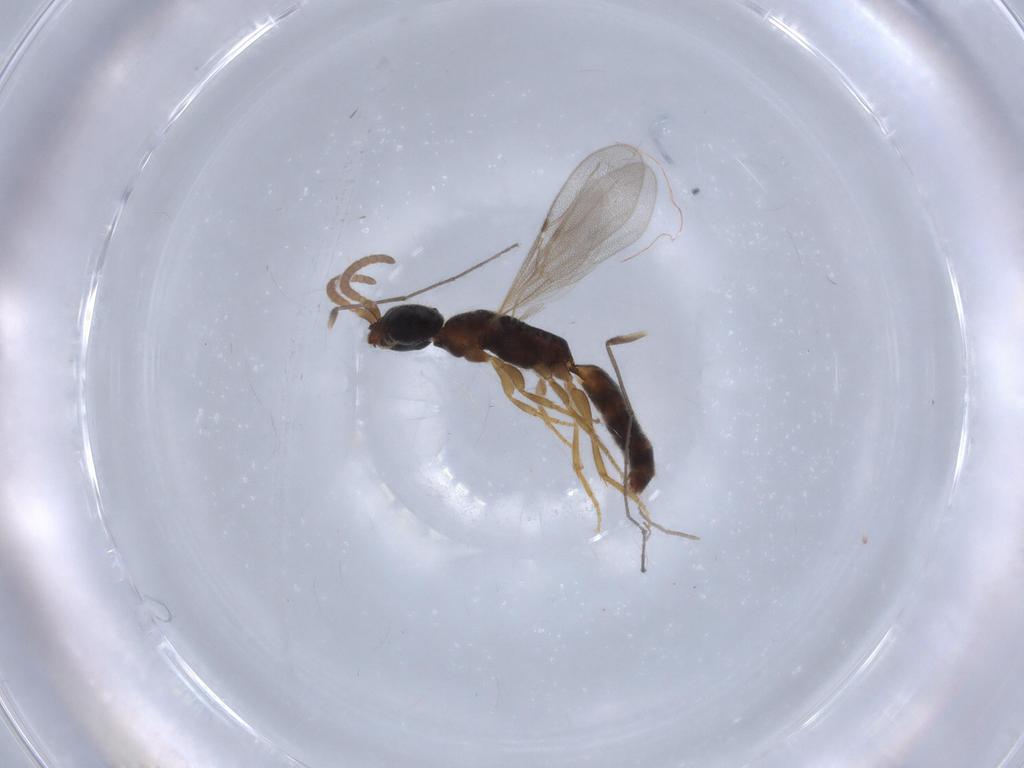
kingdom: Animalia
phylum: Arthropoda
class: Insecta
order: Hymenoptera
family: Bethylidae
